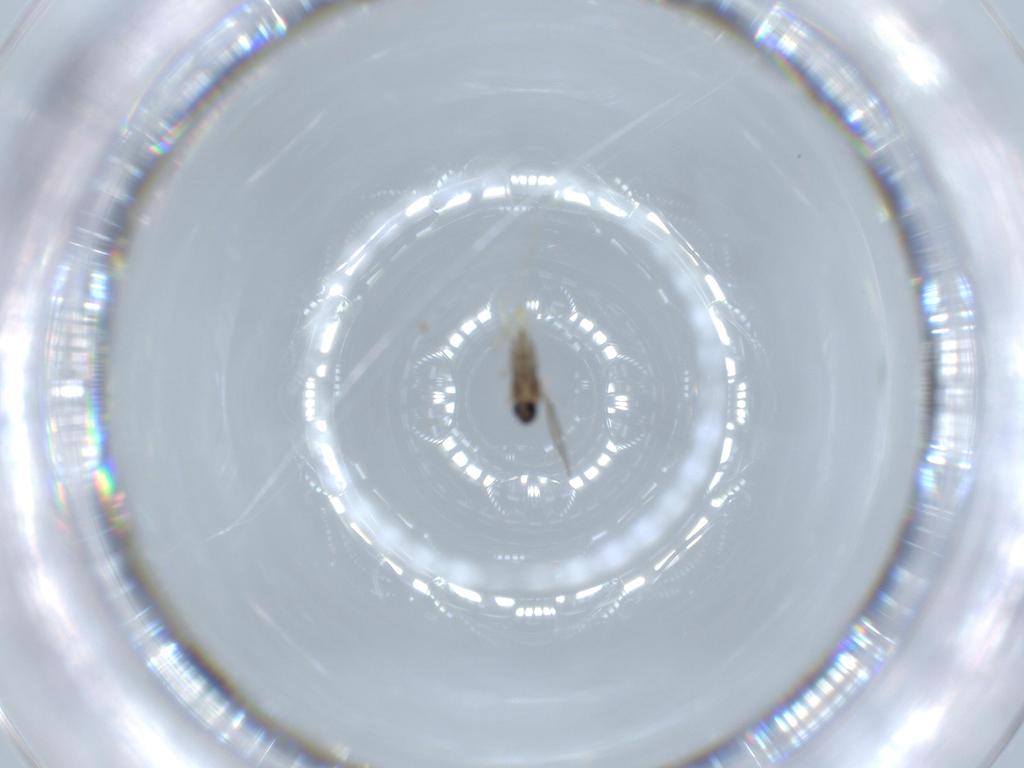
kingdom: Animalia
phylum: Arthropoda
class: Insecta
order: Diptera
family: Cecidomyiidae
